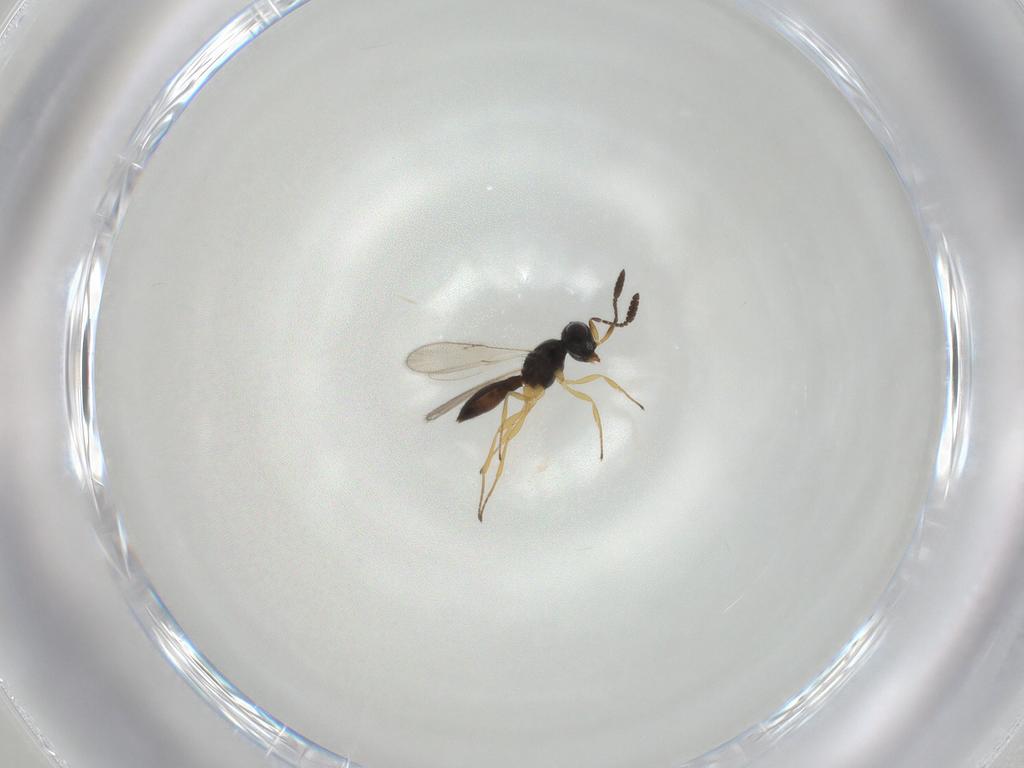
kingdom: Animalia
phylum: Arthropoda
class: Insecta
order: Hymenoptera
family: Scelionidae
